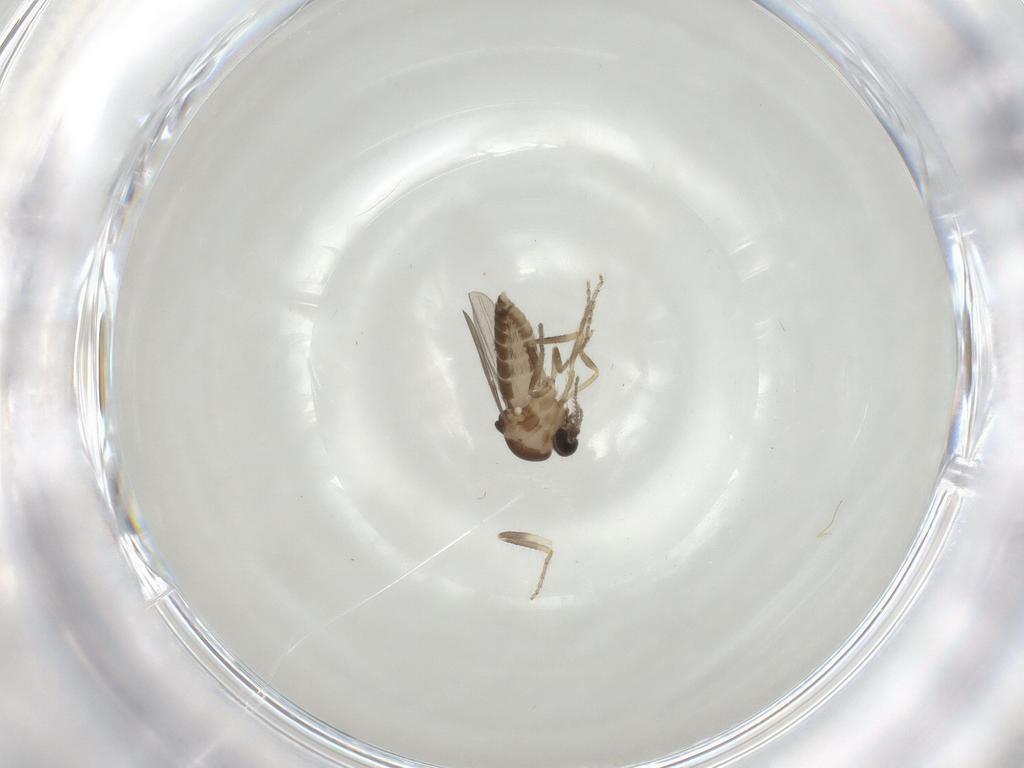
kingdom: Animalia
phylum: Arthropoda
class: Insecta
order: Diptera
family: Ceratopogonidae
